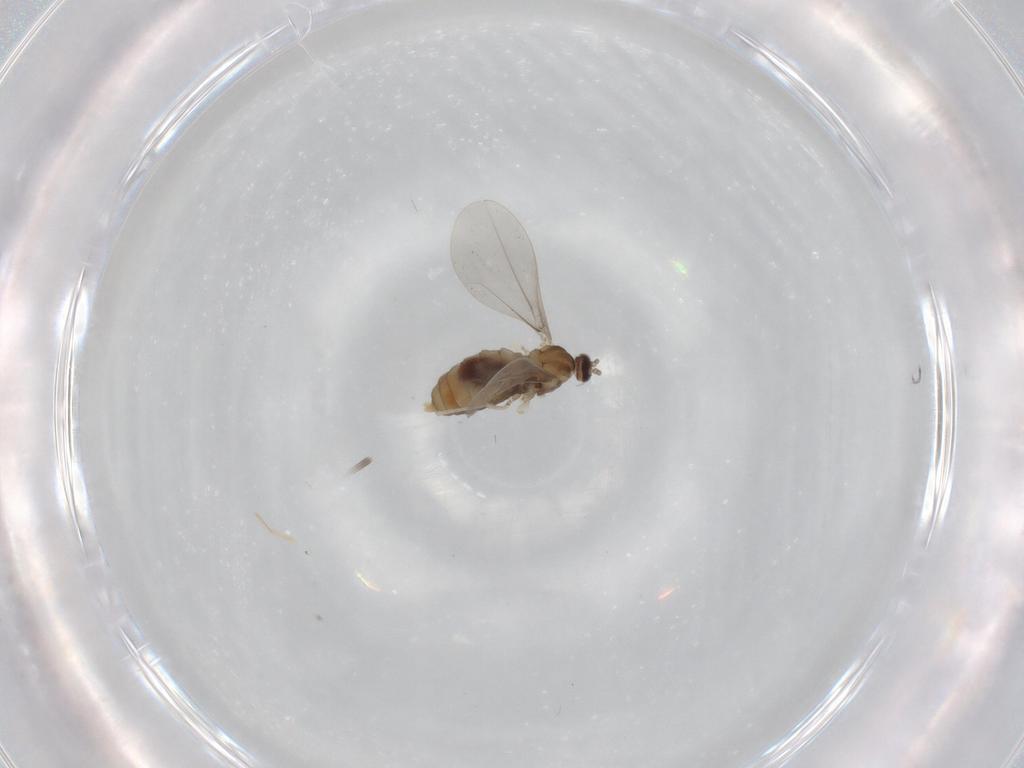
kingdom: Animalia
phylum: Arthropoda
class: Insecta
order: Diptera
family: Cecidomyiidae
